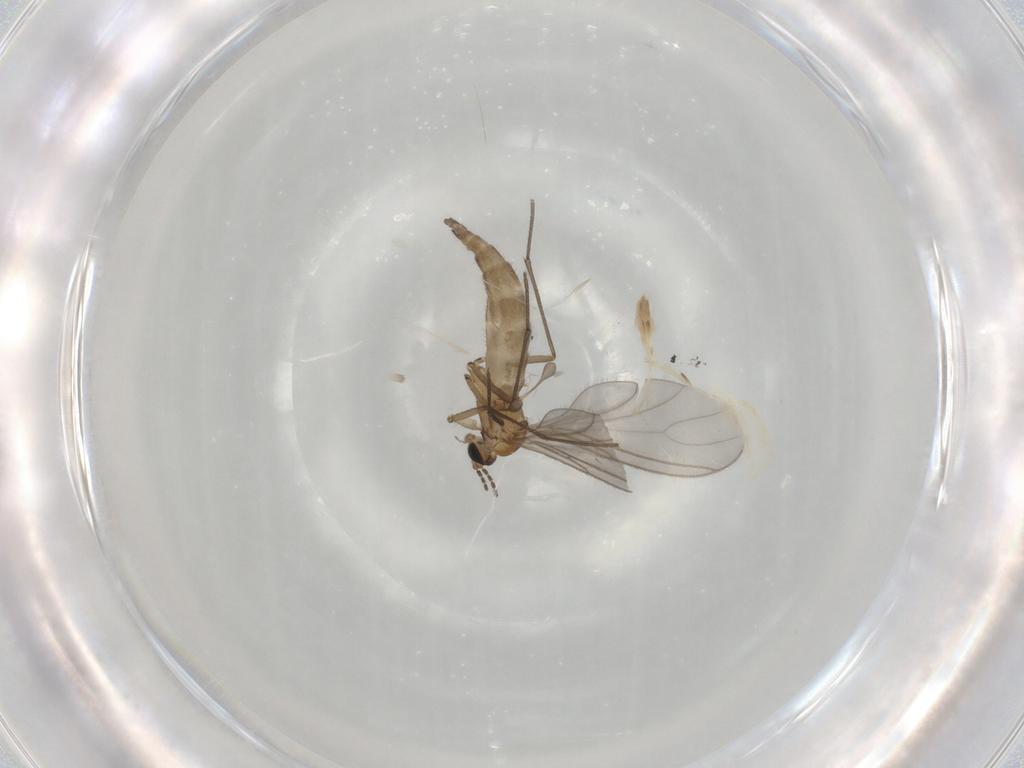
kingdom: Animalia
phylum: Arthropoda
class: Insecta
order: Diptera
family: Sciaridae
